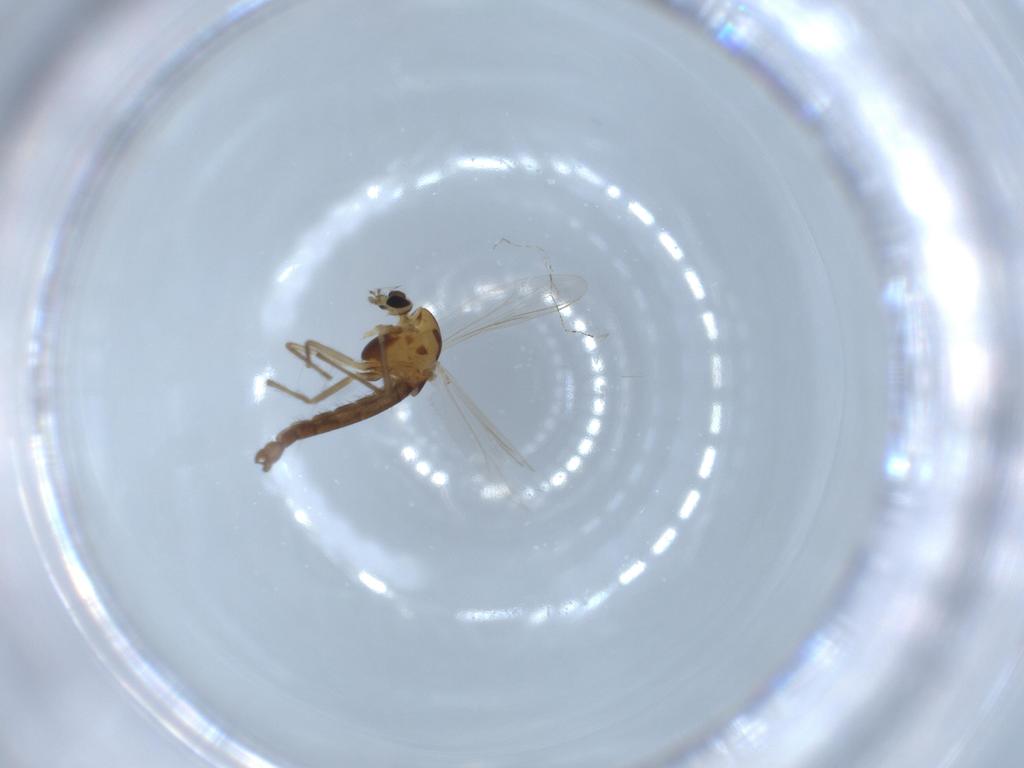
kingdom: Animalia
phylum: Arthropoda
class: Insecta
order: Diptera
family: Chironomidae
